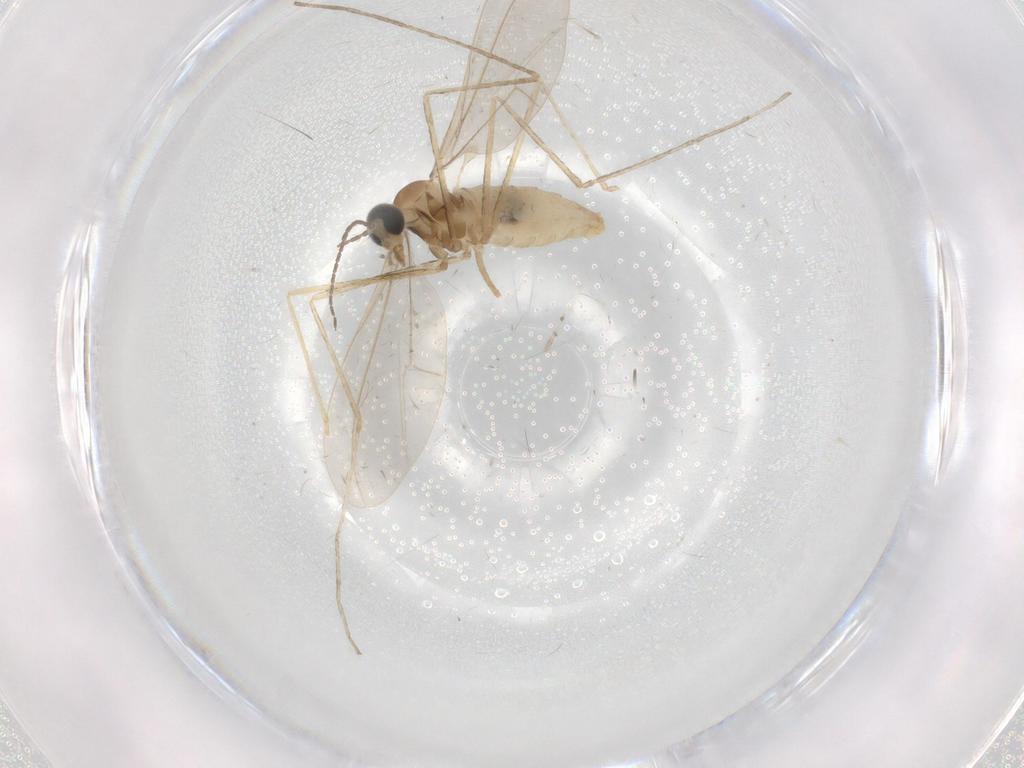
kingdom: Animalia
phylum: Arthropoda
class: Insecta
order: Diptera
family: Cecidomyiidae
